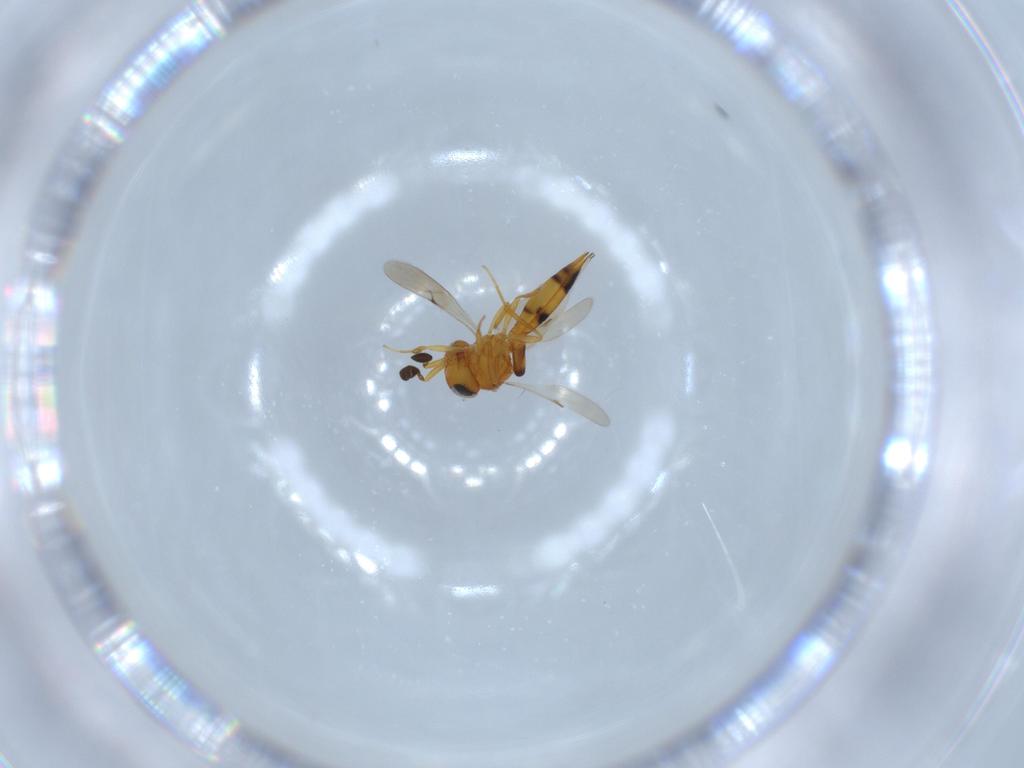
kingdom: Animalia
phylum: Arthropoda
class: Insecta
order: Hymenoptera
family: Scelionidae
